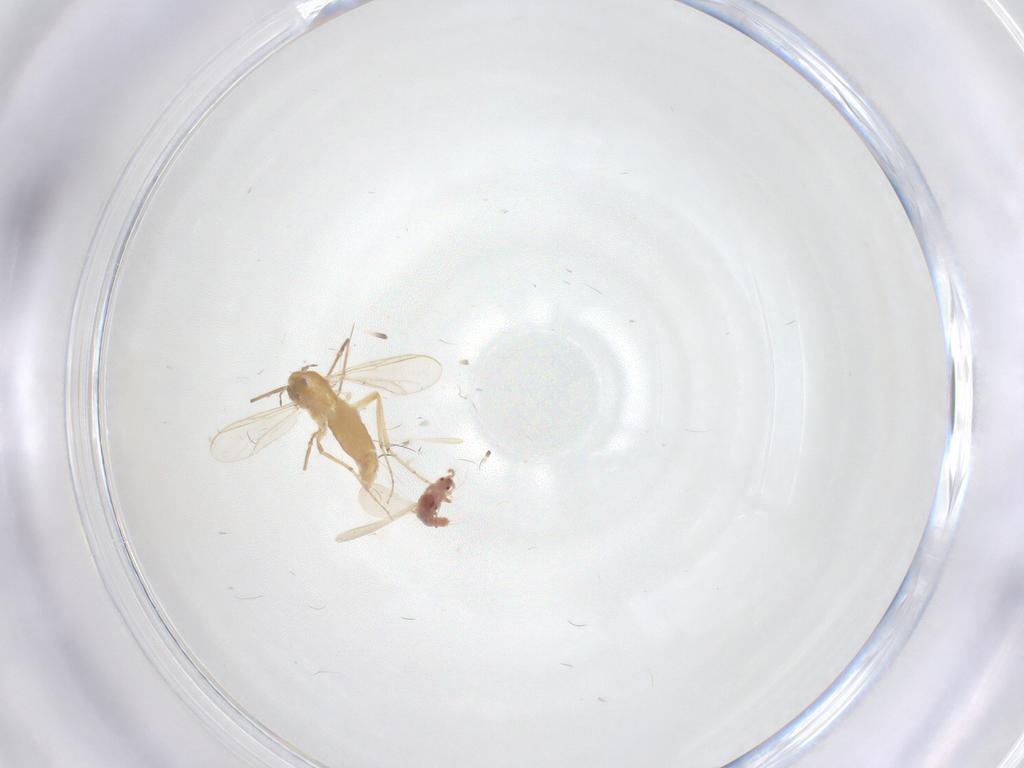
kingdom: Animalia
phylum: Arthropoda
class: Insecta
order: Diptera
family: Chironomidae
